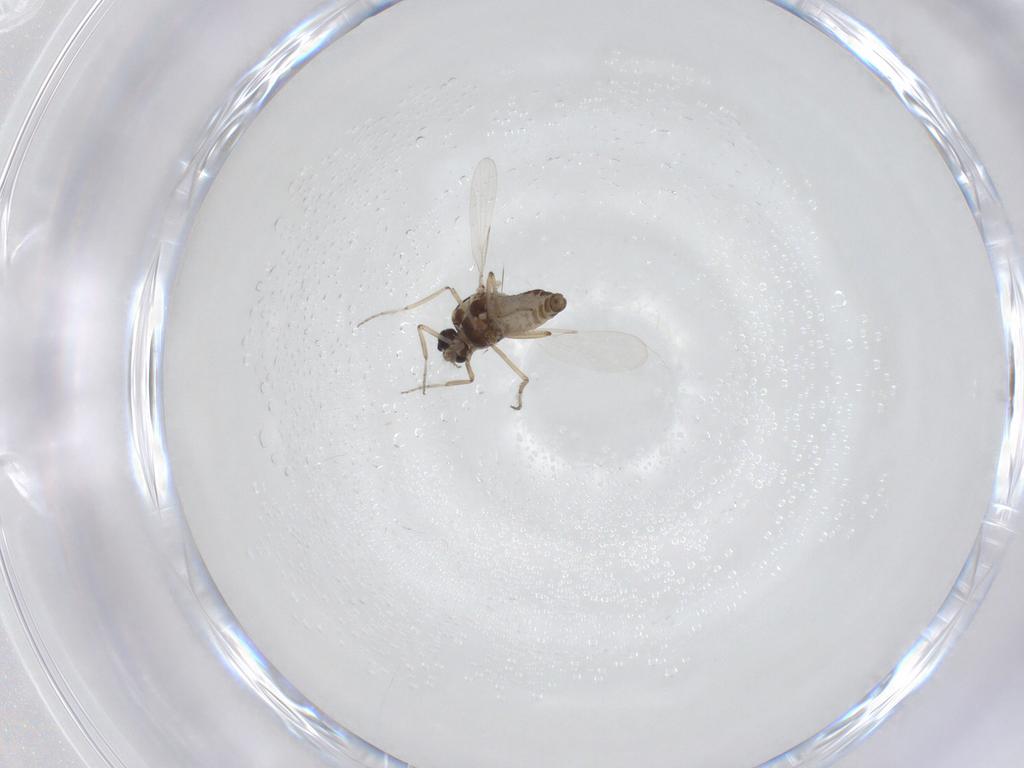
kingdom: Animalia
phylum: Arthropoda
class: Insecta
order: Diptera
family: Ceratopogonidae
